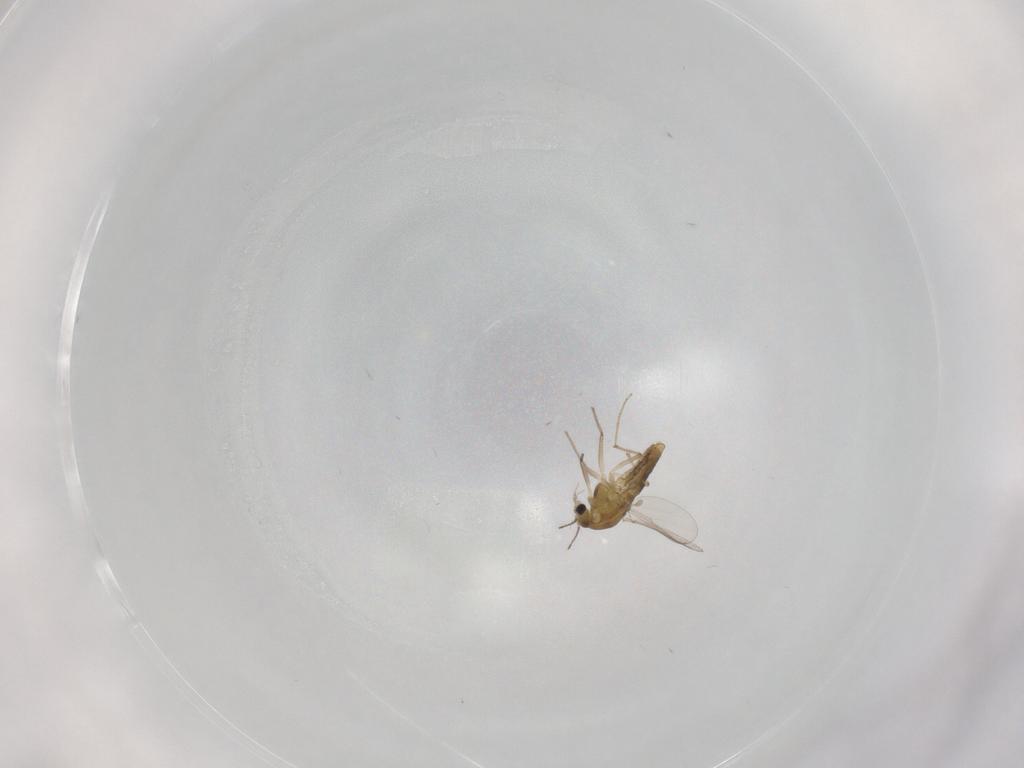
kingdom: Animalia
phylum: Arthropoda
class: Insecta
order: Diptera
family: Chironomidae
